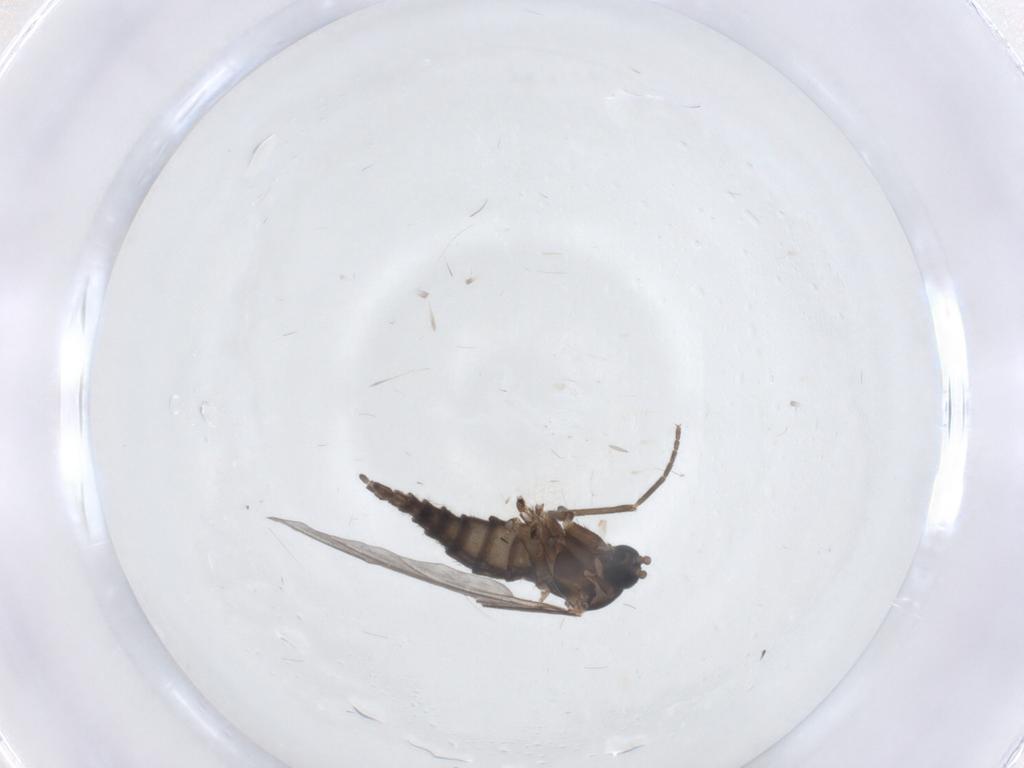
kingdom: Animalia
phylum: Arthropoda
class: Insecta
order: Diptera
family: Sciaridae
